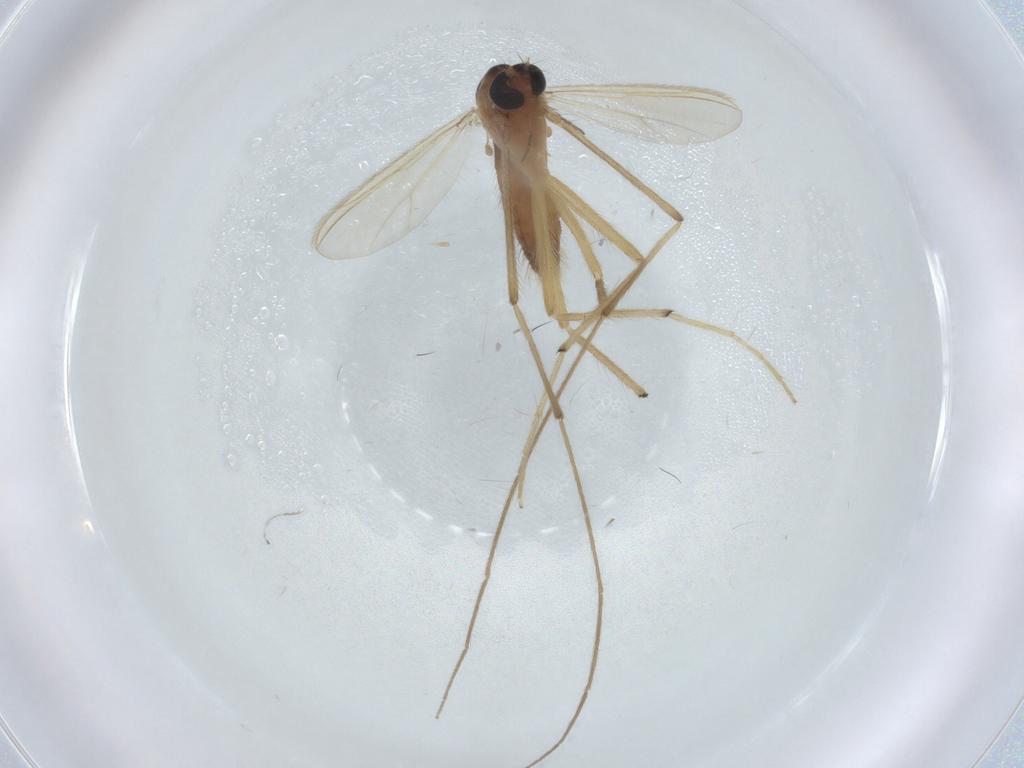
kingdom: Animalia
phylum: Arthropoda
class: Insecta
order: Diptera
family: Chironomidae
